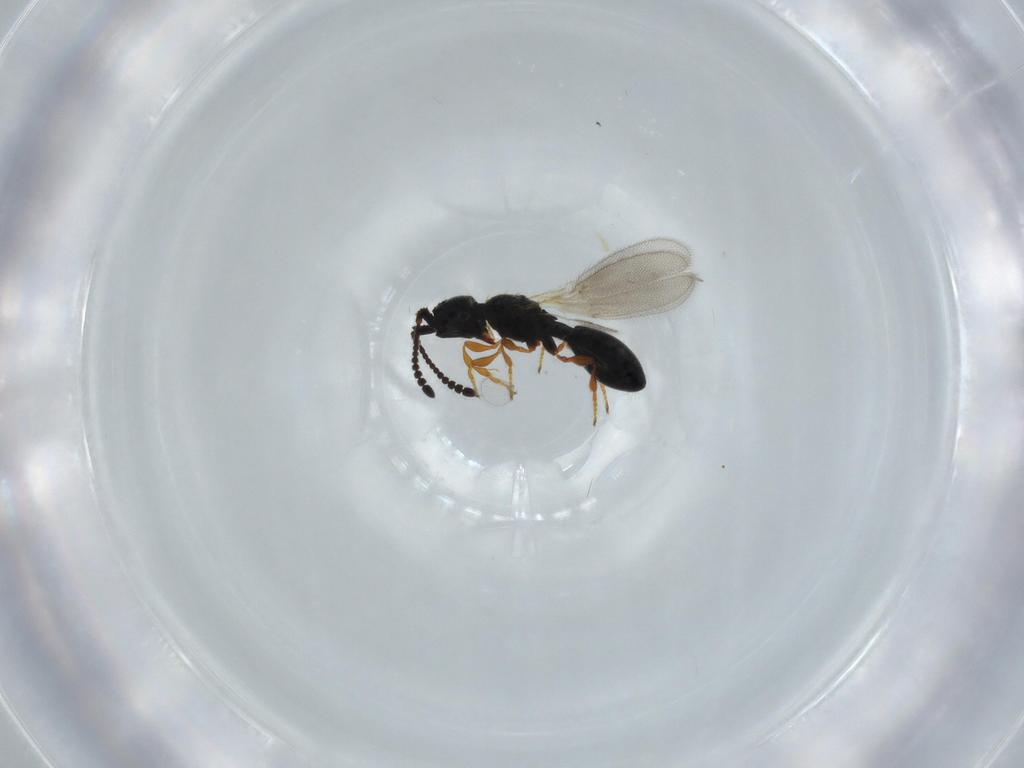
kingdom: Animalia
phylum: Arthropoda
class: Insecta
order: Hymenoptera
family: Diapriidae
